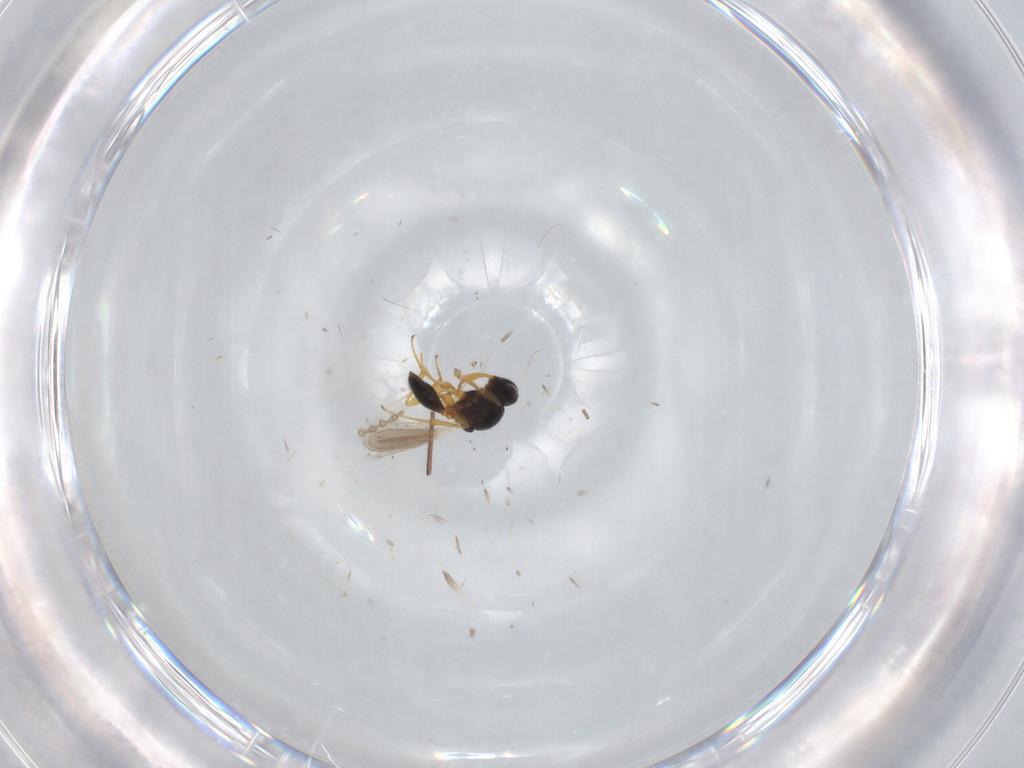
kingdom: Animalia
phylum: Arthropoda
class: Insecta
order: Hymenoptera
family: Platygastridae
